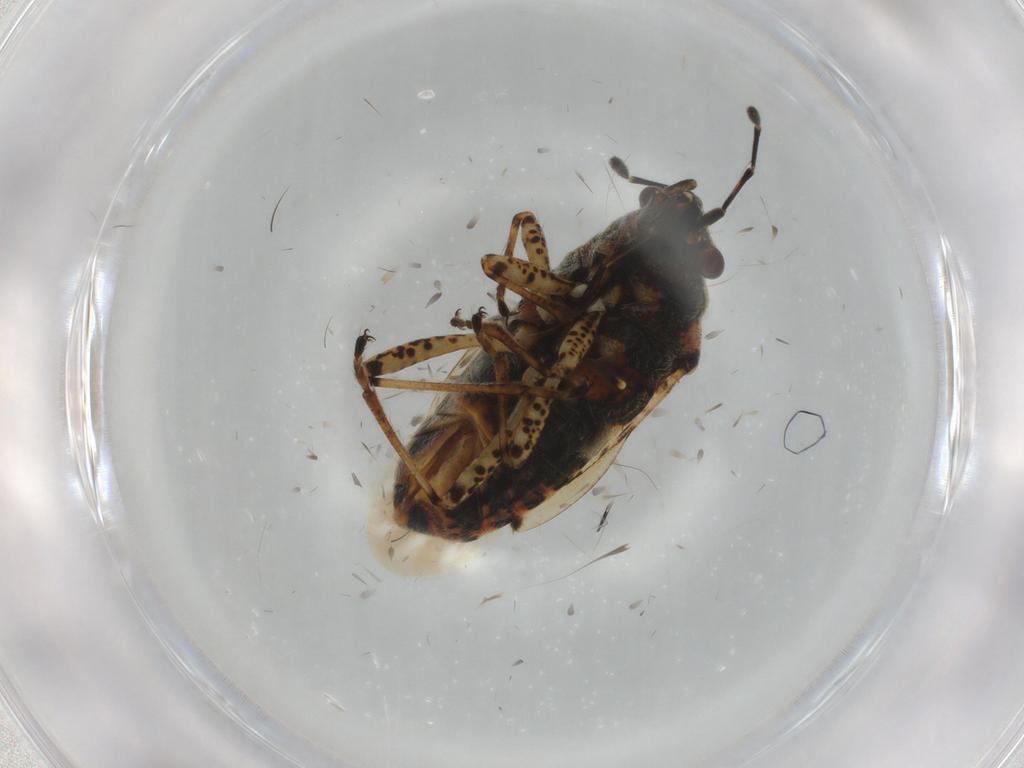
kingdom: Animalia
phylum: Arthropoda
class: Insecta
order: Hemiptera
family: Lygaeidae
